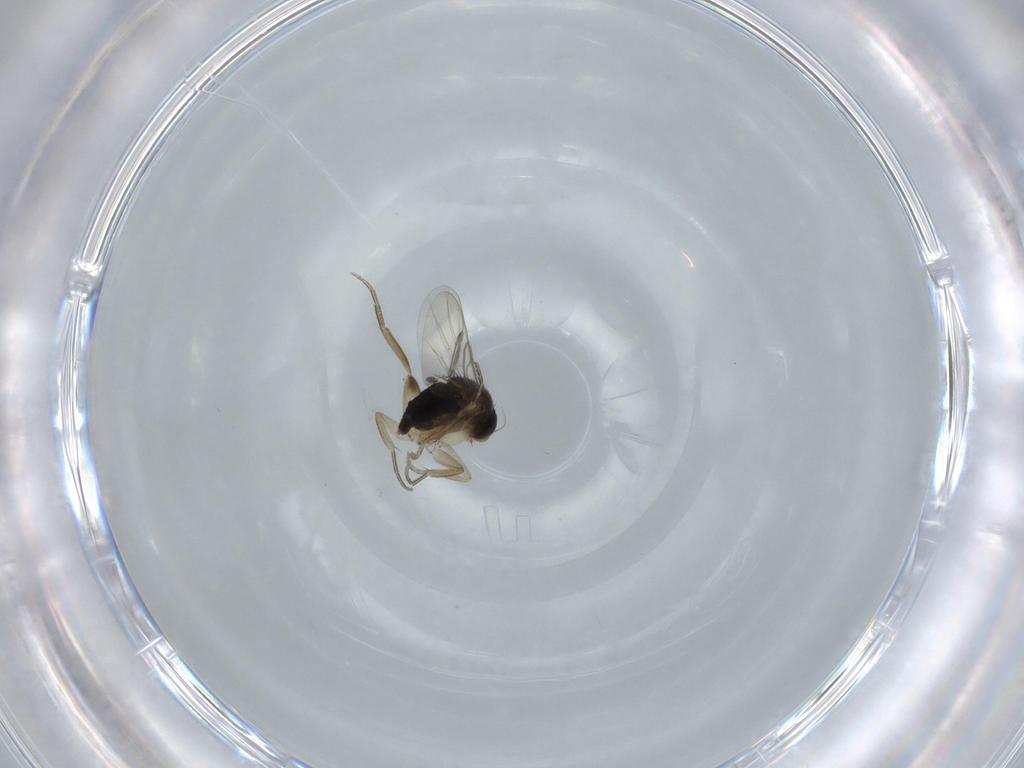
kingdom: Animalia
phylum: Arthropoda
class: Insecta
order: Diptera
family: Phoridae
